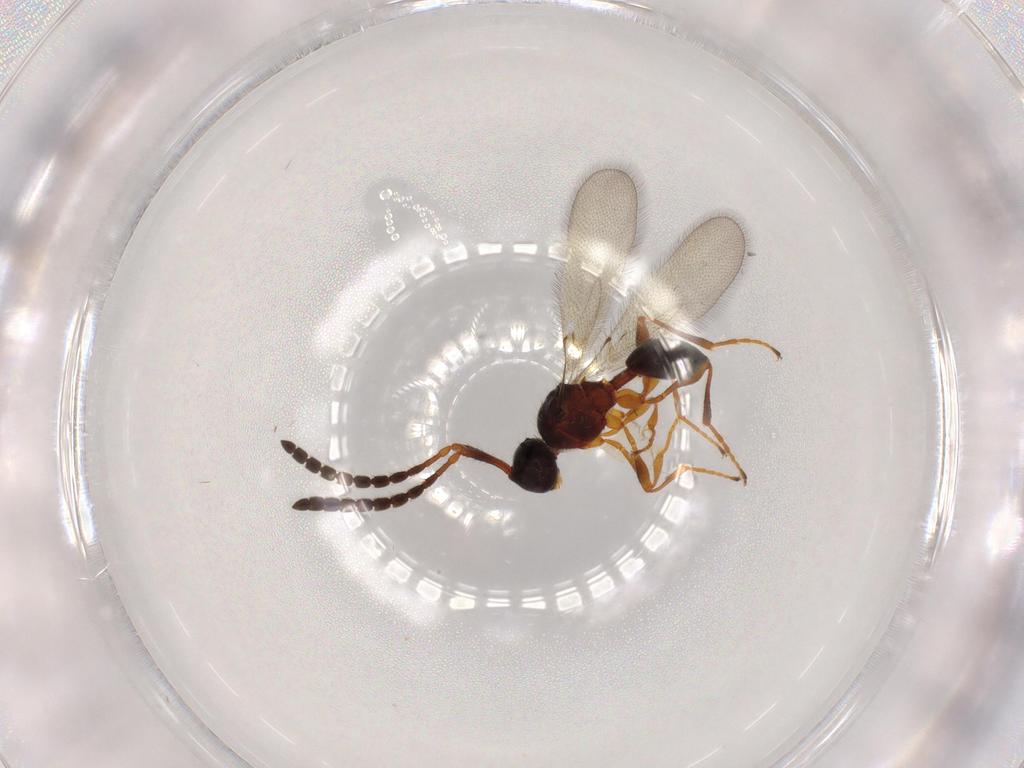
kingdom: Animalia
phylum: Arthropoda
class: Insecta
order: Hymenoptera
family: Diapriidae
